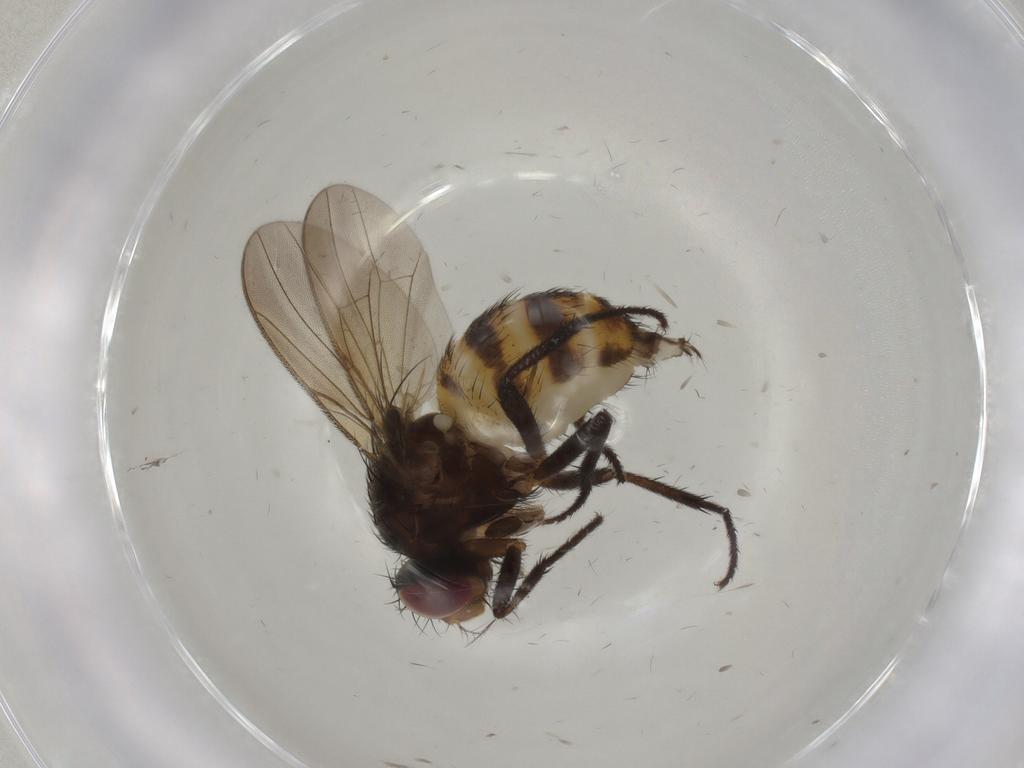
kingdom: Animalia
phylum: Arthropoda
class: Insecta
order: Diptera
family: Anthomyiidae
